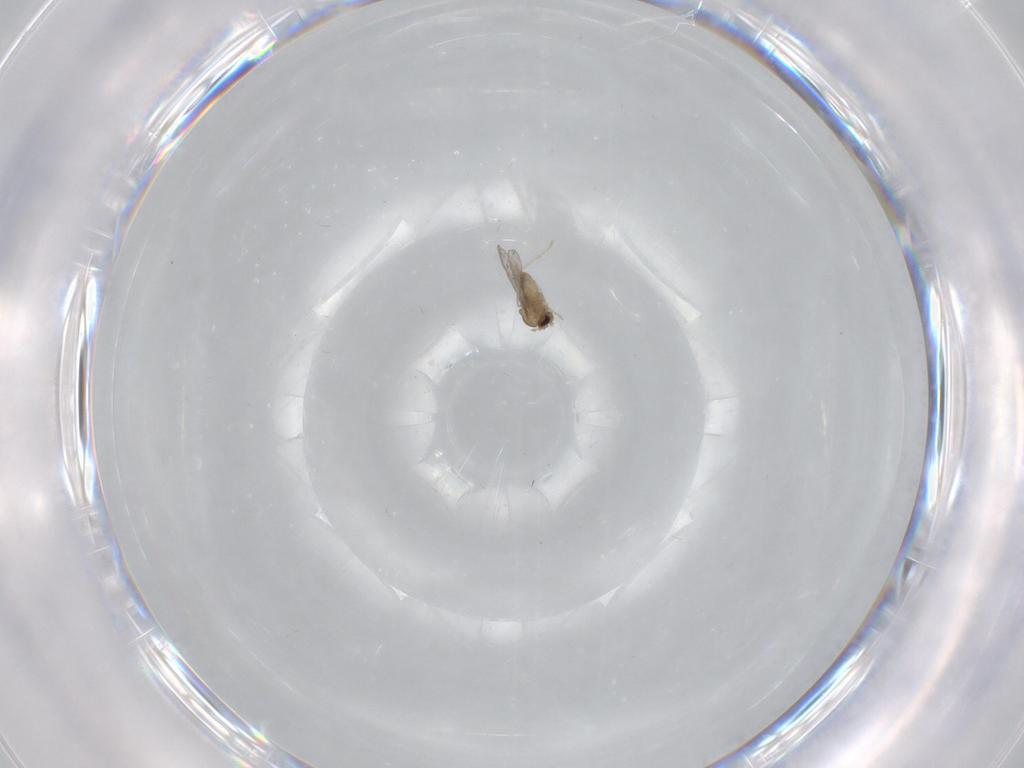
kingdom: Animalia
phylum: Arthropoda
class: Insecta
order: Diptera
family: Cecidomyiidae
